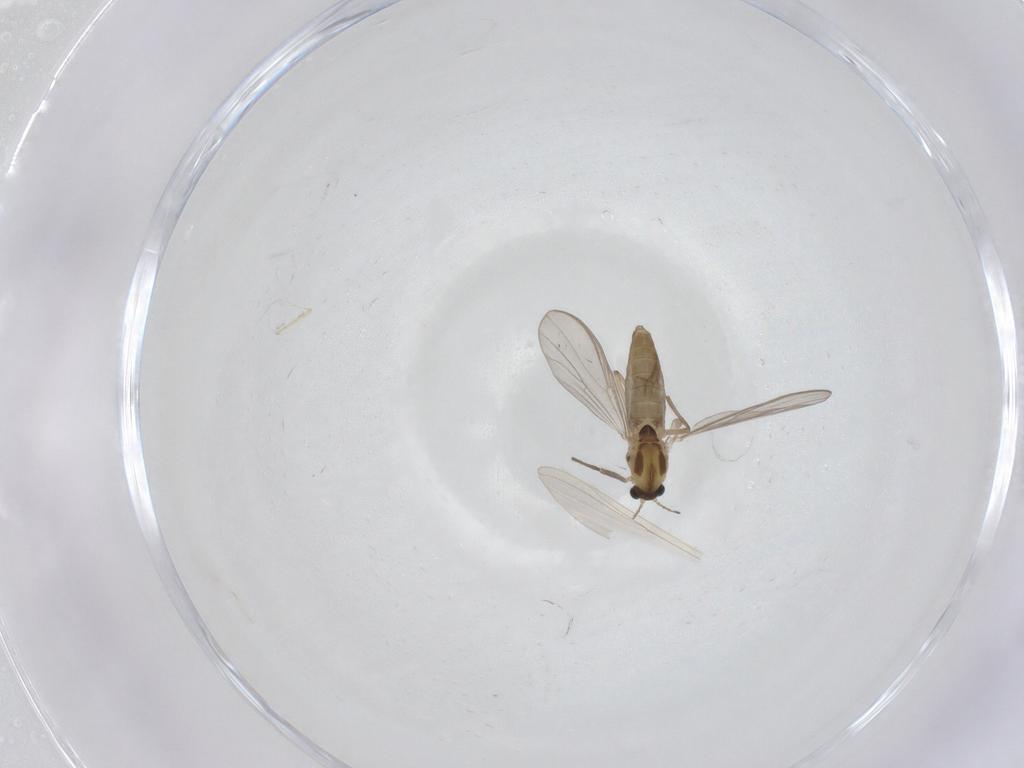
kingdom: Animalia
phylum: Arthropoda
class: Insecta
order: Diptera
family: Chironomidae
